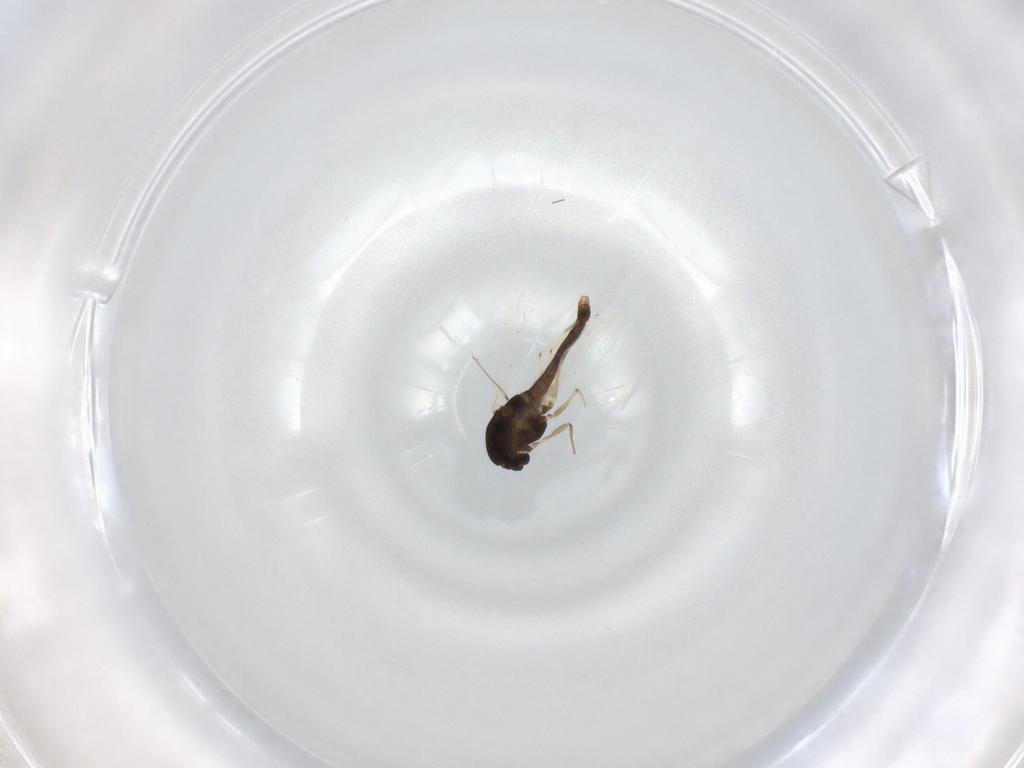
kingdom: Animalia
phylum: Arthropoda
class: Insecta
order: Diptera
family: Chironomidae
